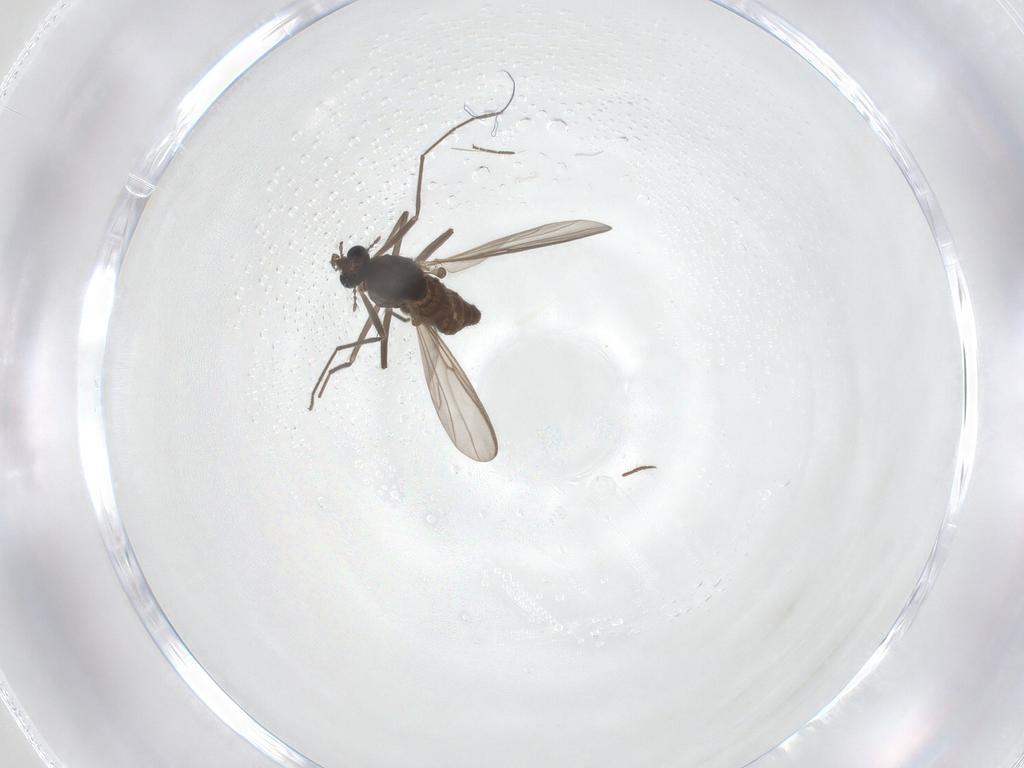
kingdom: Animalia
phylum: Arthropoda
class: Insecta
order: Diptera
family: Chironomidae
